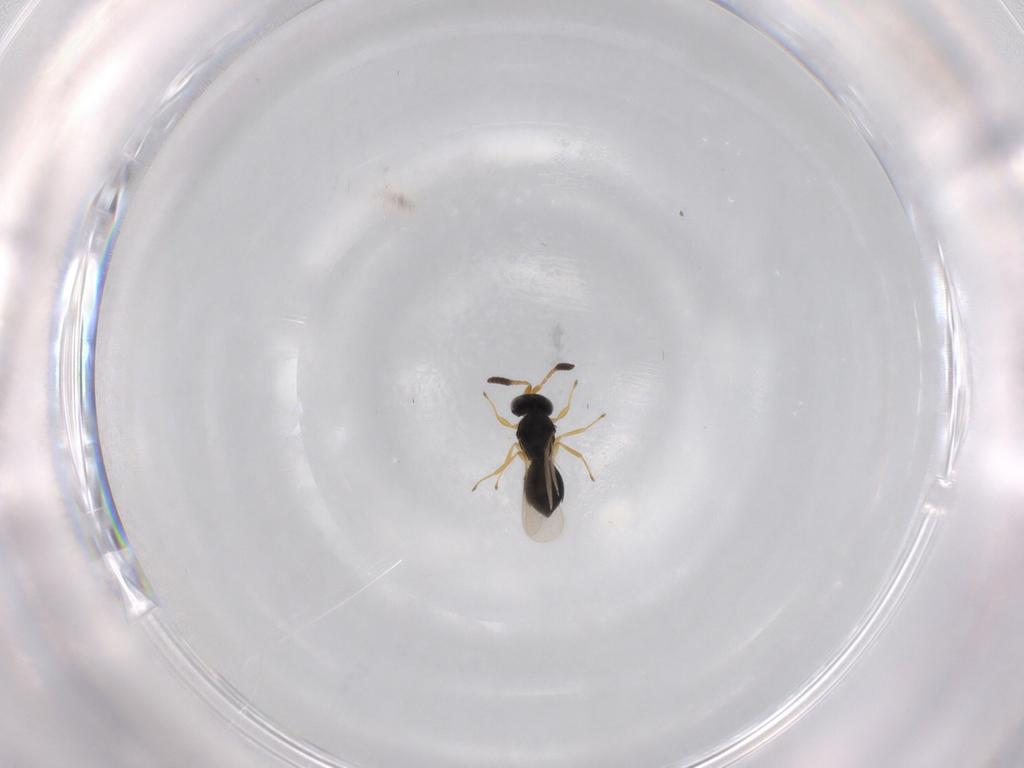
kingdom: Animalia
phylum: Arthropoda
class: Insecta
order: Hymenoptera
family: Scelionidae
